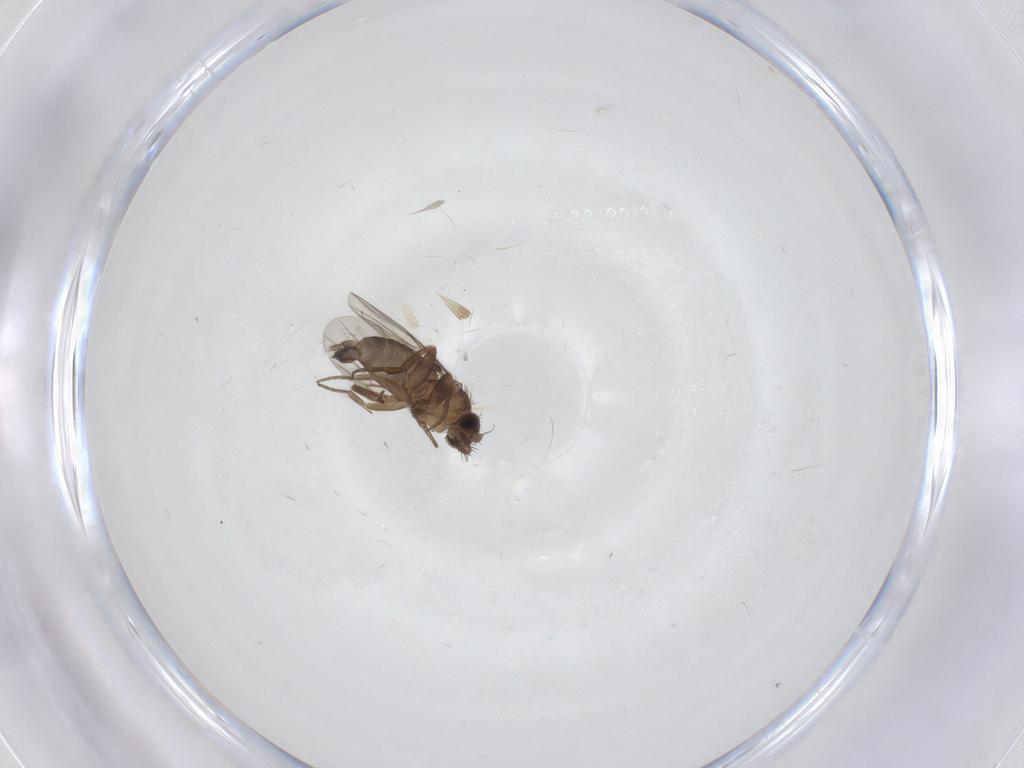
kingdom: Animalia
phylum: Arthropoda
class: Insecta
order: Diptera
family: Phoridae
